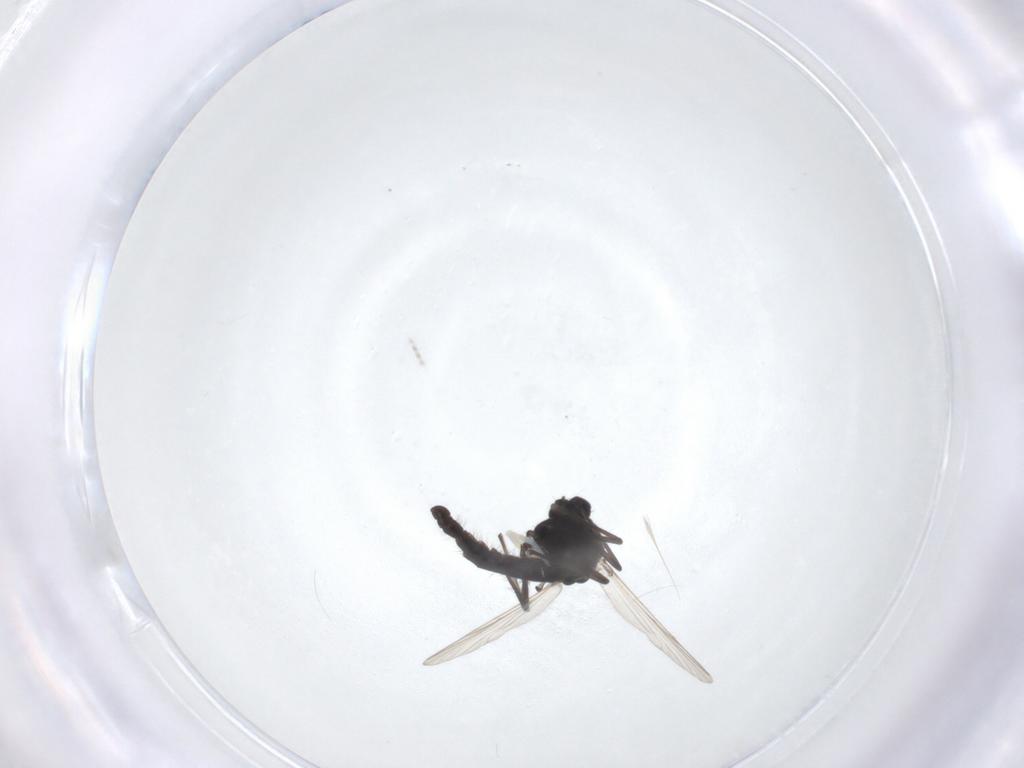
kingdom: Animalia
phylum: Arthropoda
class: Insecta
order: Diptera
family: Chironomidae
